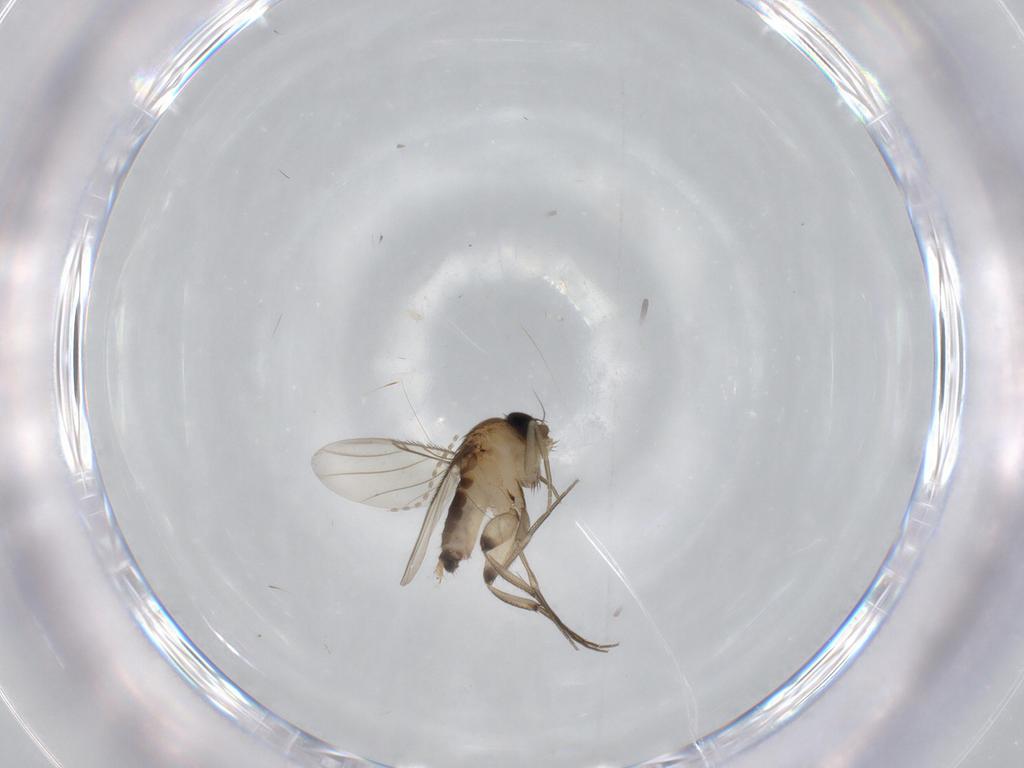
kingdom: Animalia
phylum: Arthropoda
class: Insecta
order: Diptera
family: Phoridae
